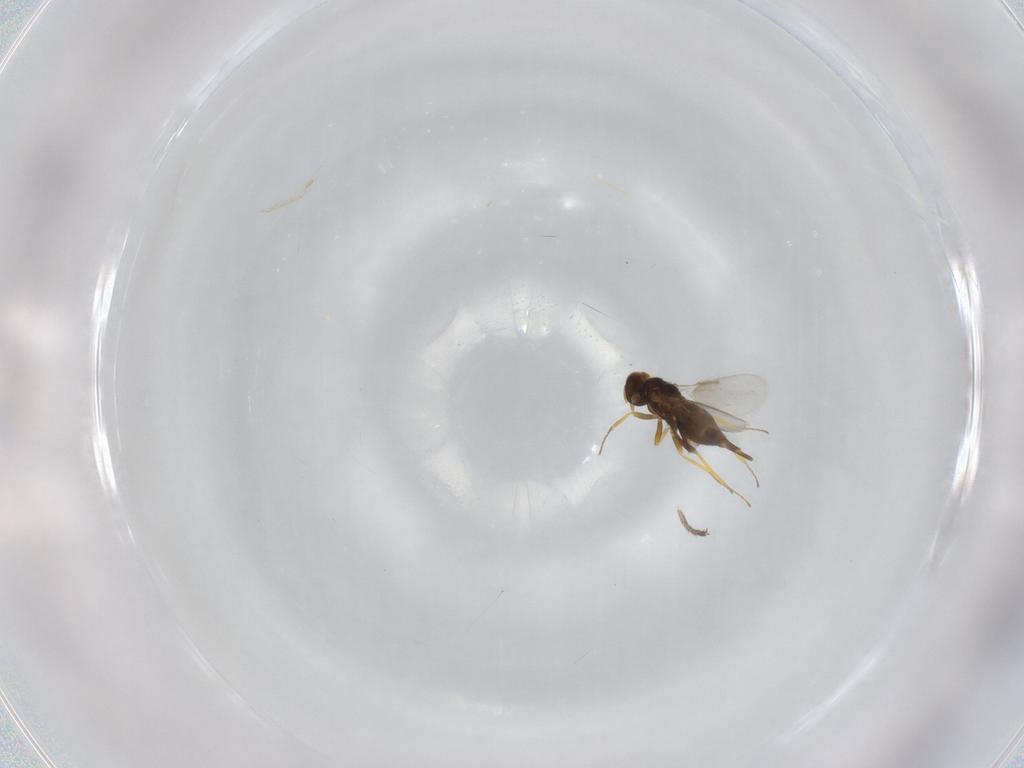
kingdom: Animalia
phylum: Arthropoda
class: Insecta
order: Hymenoptera
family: Aphelinidae
